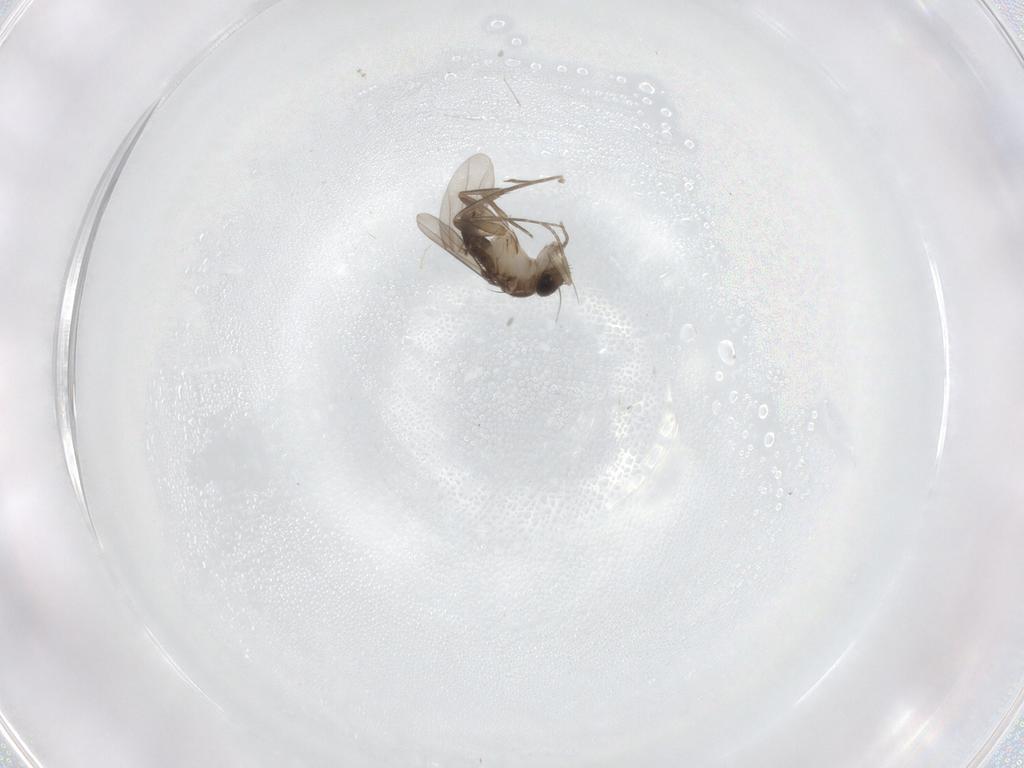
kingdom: Animalia
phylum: Arthropoda
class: Insecta
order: Diptera
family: Phoridae
